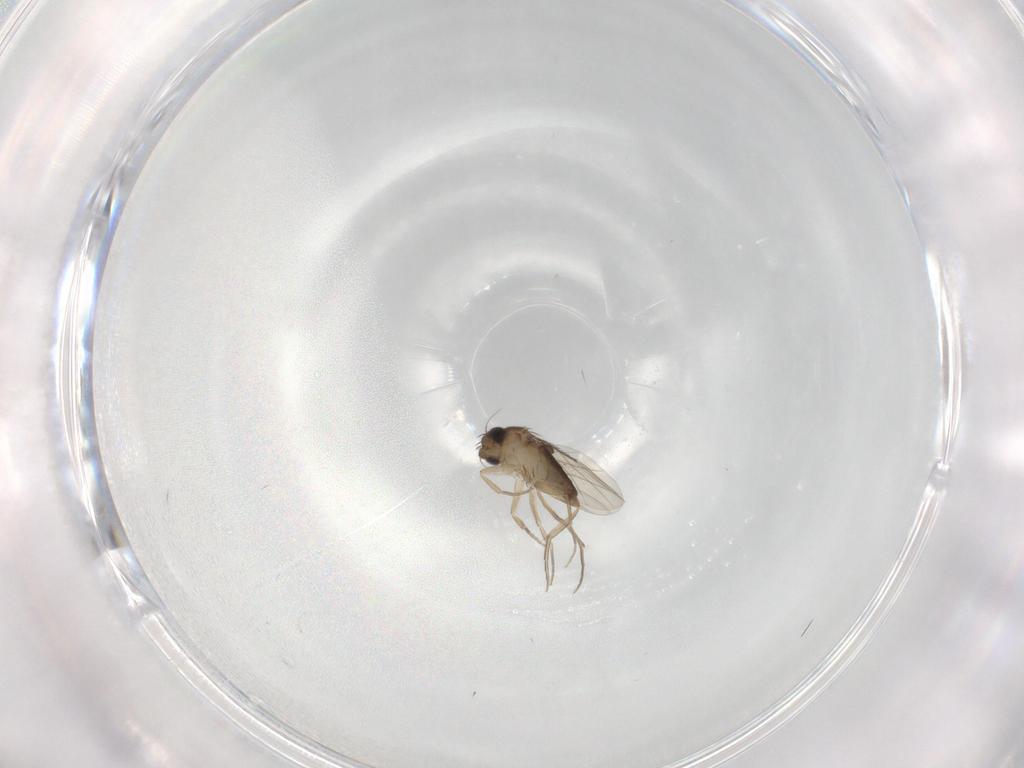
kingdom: Animalia
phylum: Arthropoda
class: Insecta
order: Diptera
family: Phoridae
